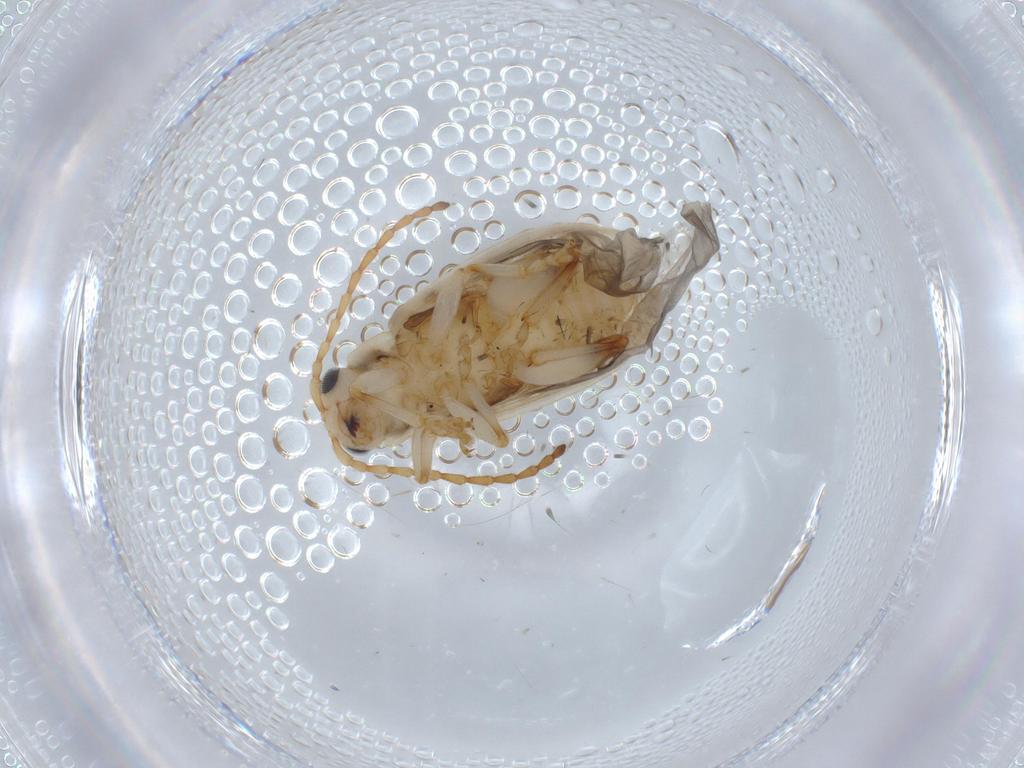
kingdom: Animalia
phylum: Arthropoda
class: Insecta
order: Coleoptera
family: Chrysomelidae
